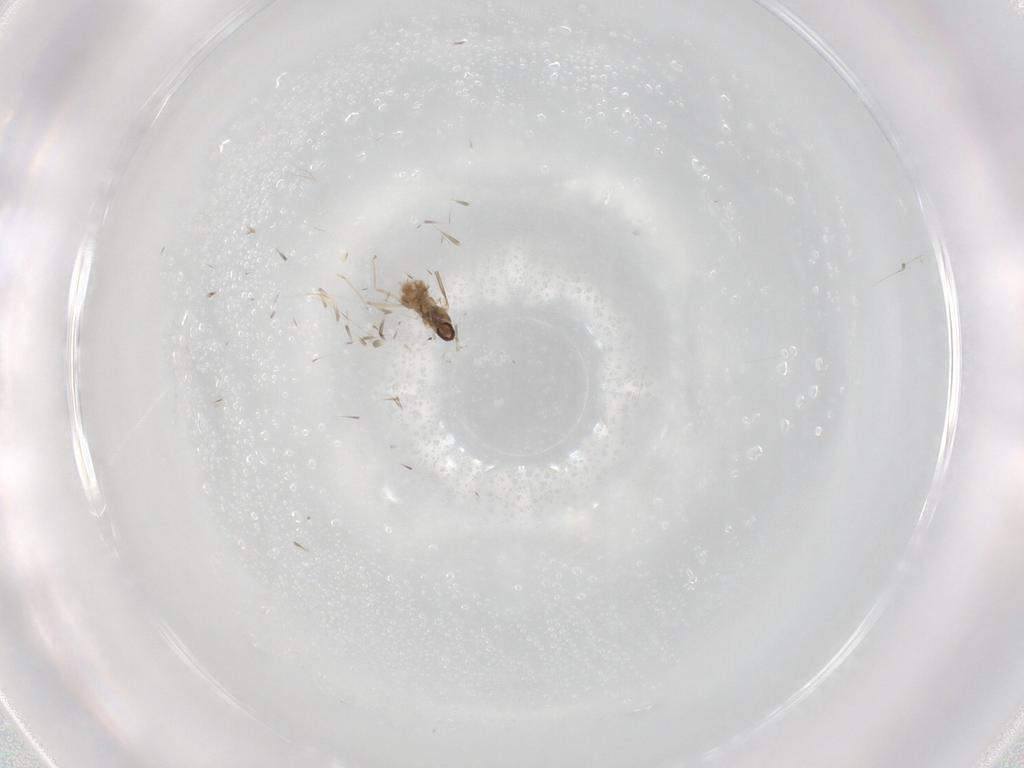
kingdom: Animalia
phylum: Arthropoda
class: Insecta
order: Diptera
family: Cecidomyiidae
